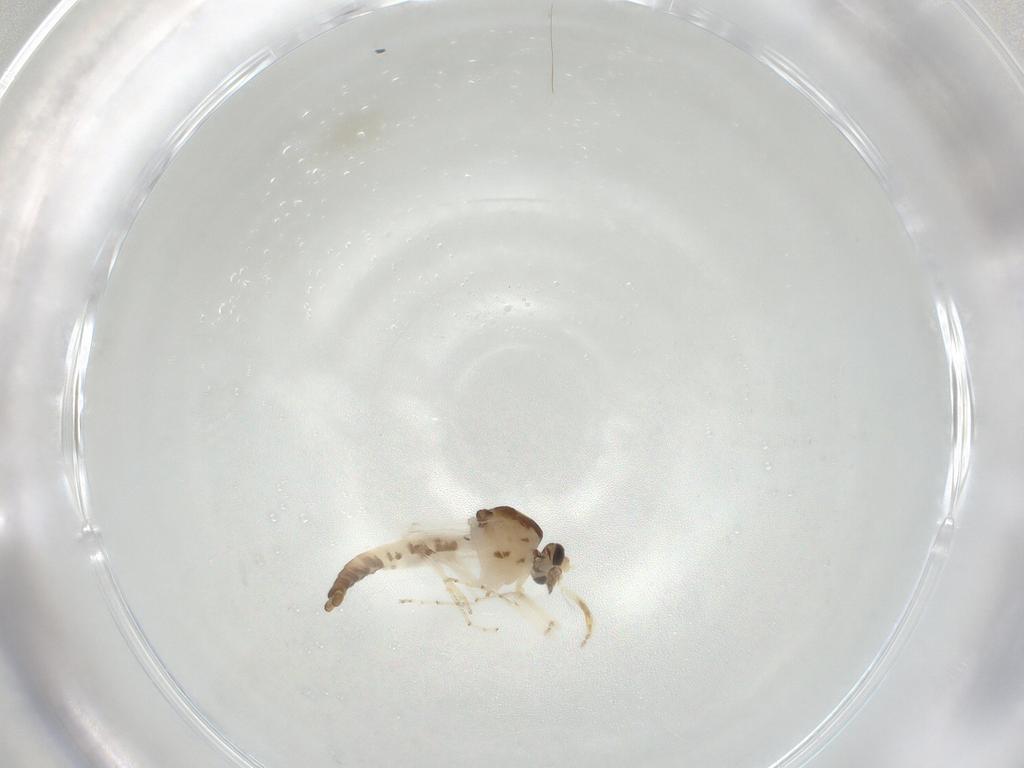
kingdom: Animalia
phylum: Arthropoda
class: Insecta
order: Diptera
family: Ceratopogonidae
